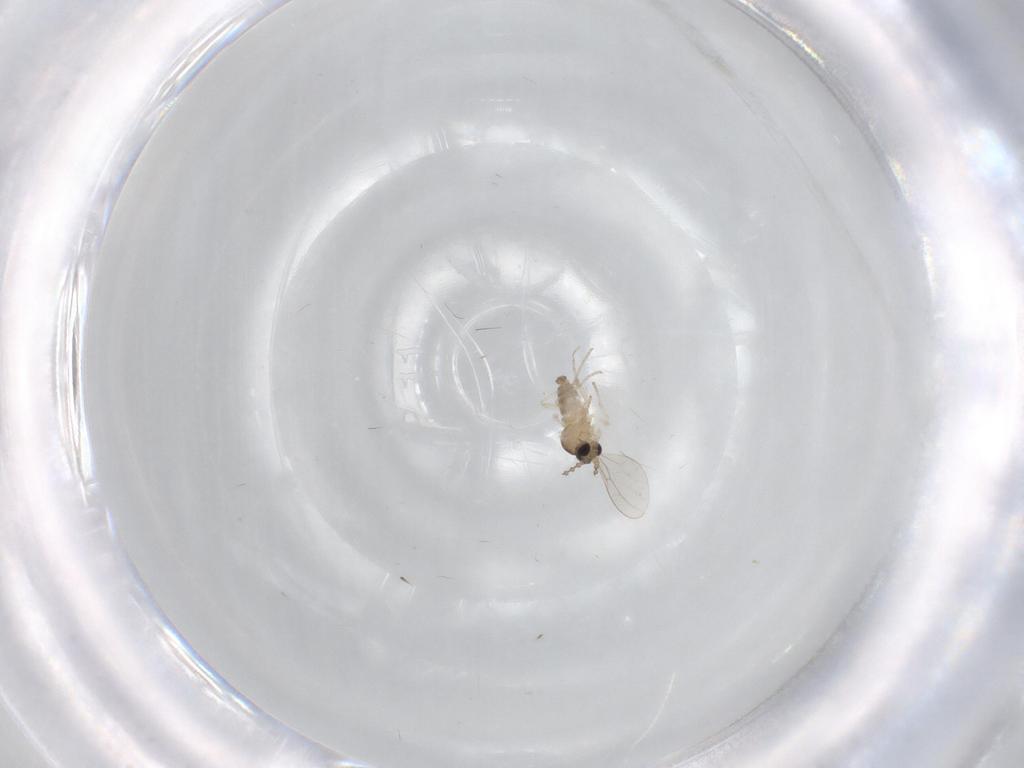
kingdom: Animalia
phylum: Arthropoda
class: Insecta
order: Diptera
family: Cecidomyiidae
